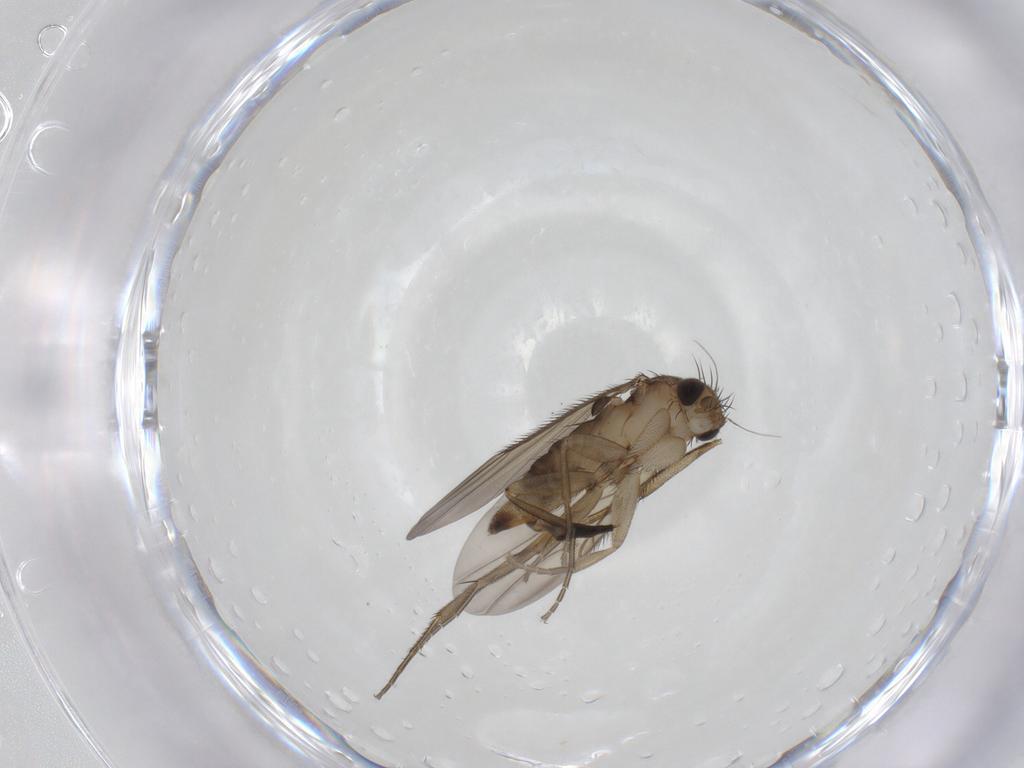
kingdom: Animalia
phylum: Arthropoda
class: Insecta
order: Diptera
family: Phoridae
